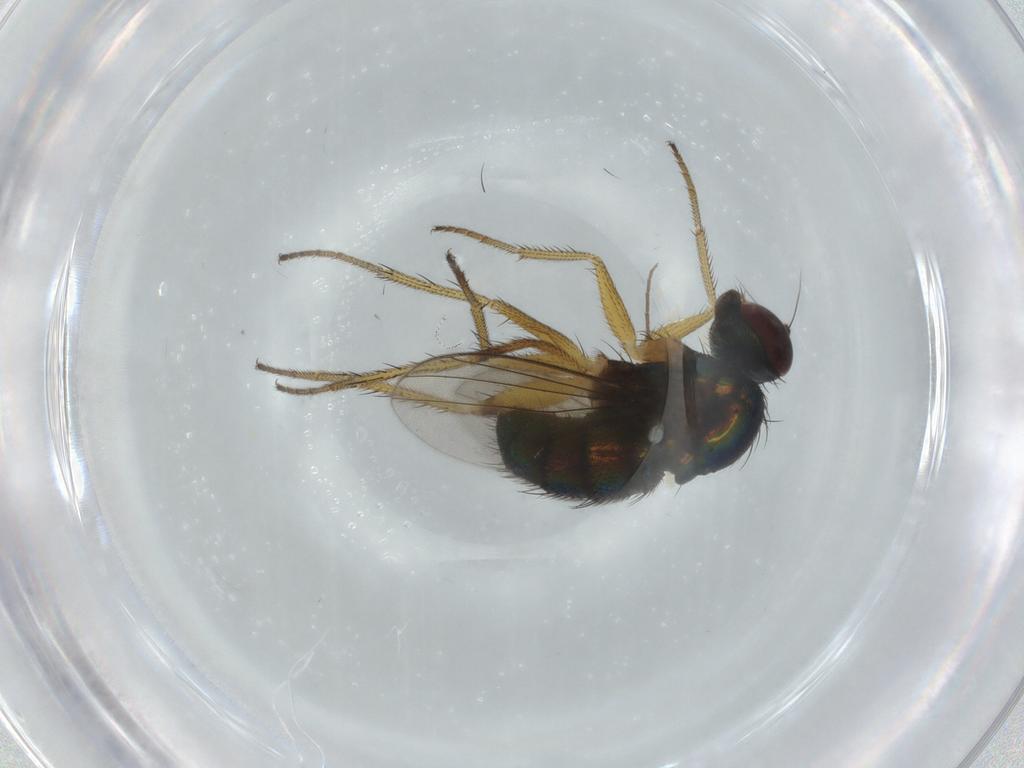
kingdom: Animalia
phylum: Arthropoda
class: Insecta
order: Diptera
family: Dolichopodidae
